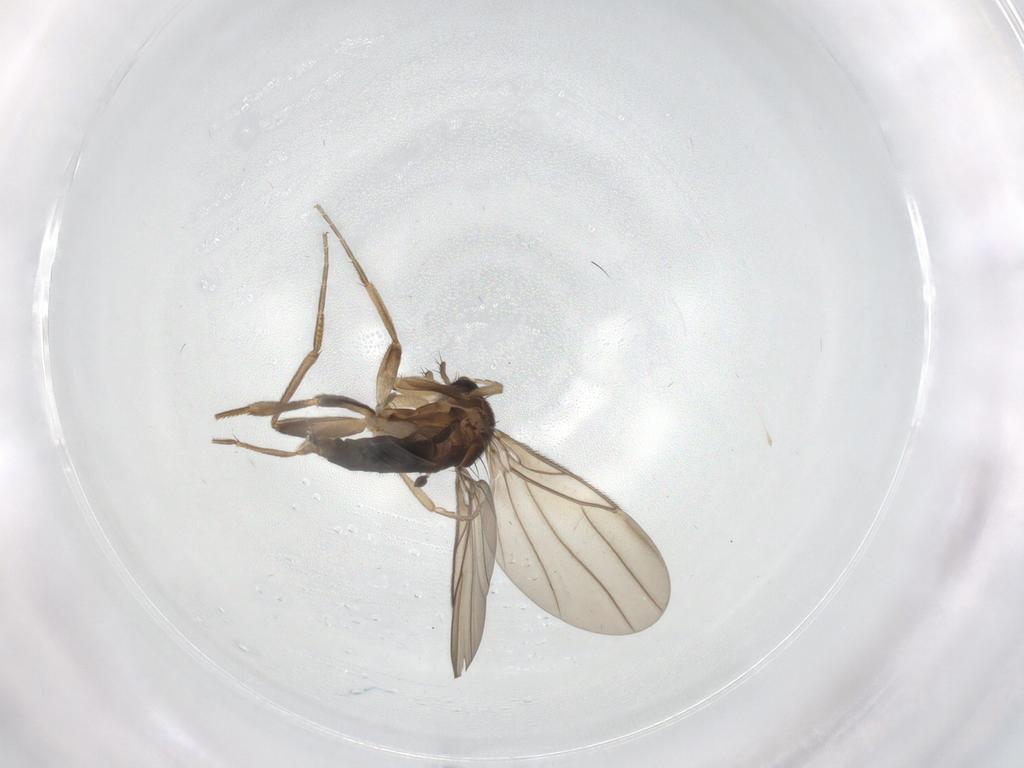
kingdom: Animalia
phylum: Arthropoda
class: Insecta
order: Diptera
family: Phoridae
